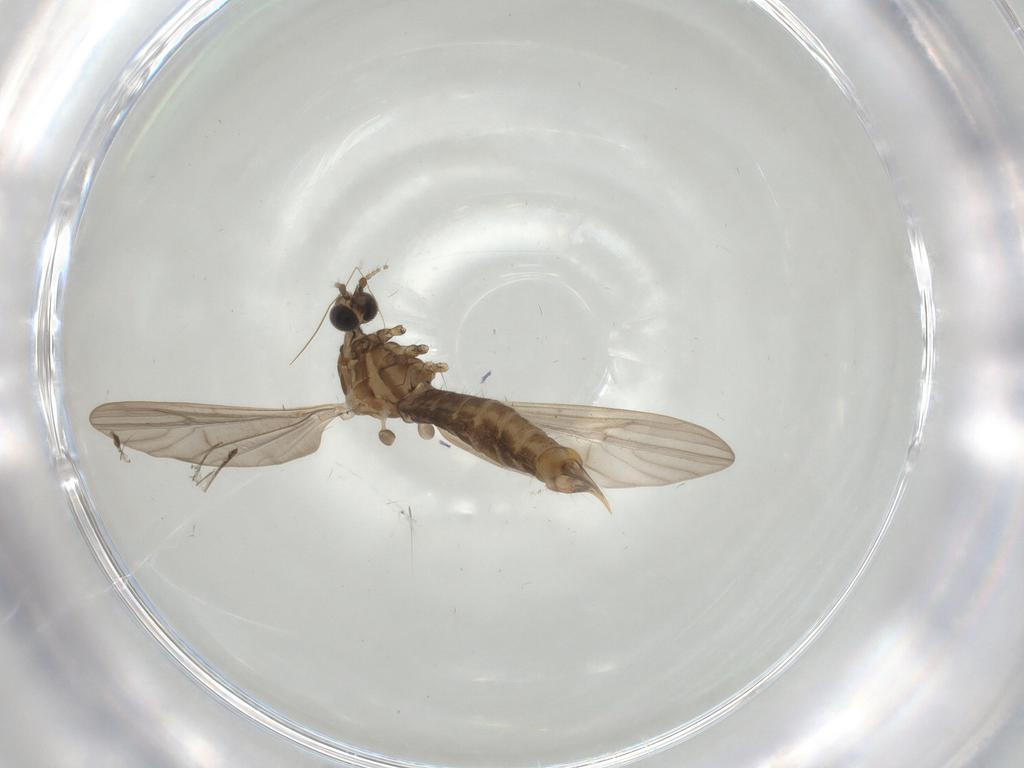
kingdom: Animalia
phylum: Arthropoda
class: Insecta
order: Diptera
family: Limoniidae
